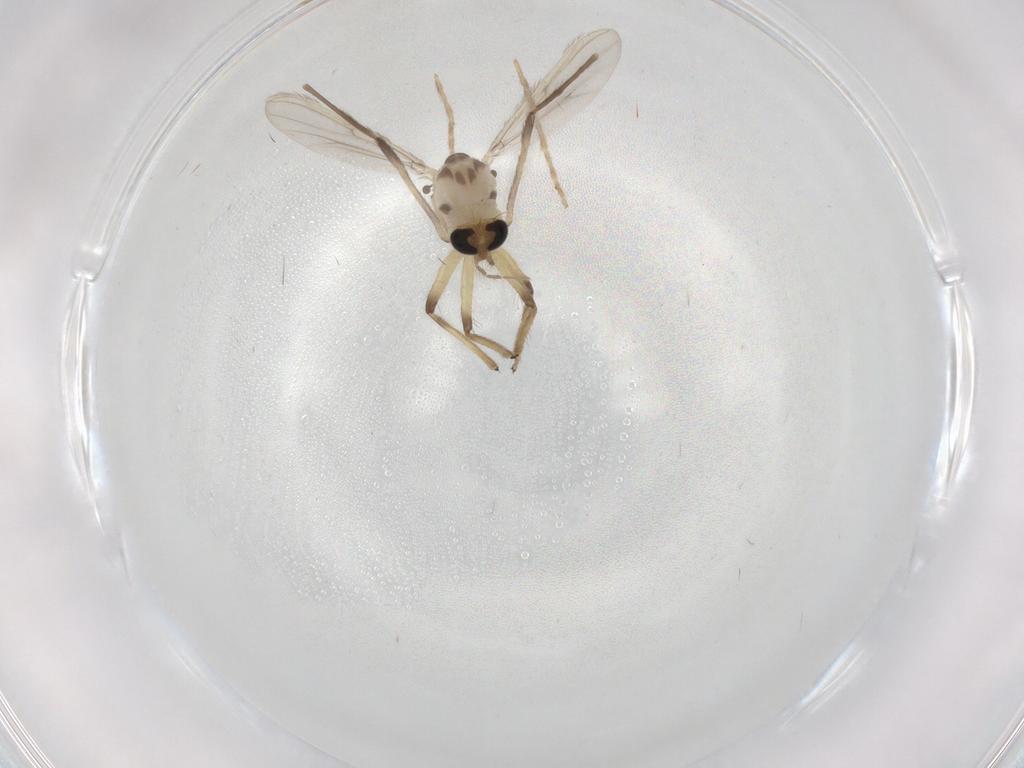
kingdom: Animalia
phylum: Arthropoda
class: Insecta
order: Diptera
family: Chironomidae
